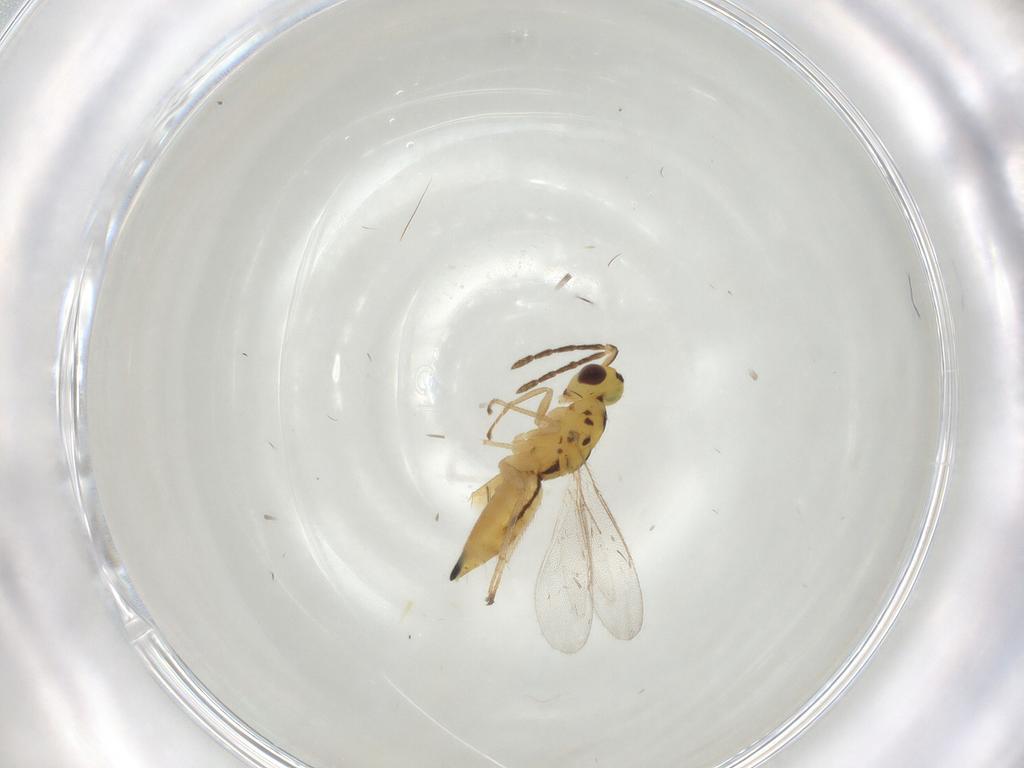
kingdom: Animalia
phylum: Arthropoda
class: Insecta
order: Hymenoptera
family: Eulophidae
